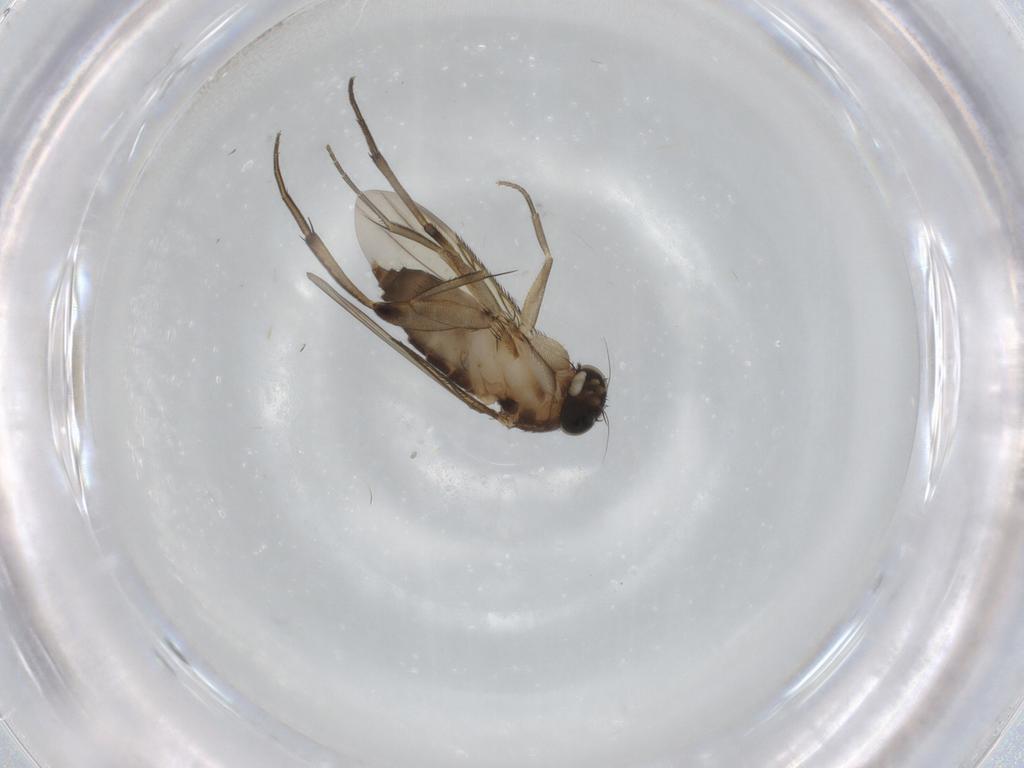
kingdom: Animalia
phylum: Arthropoda
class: Insecta
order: Diptera
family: Phoridae
